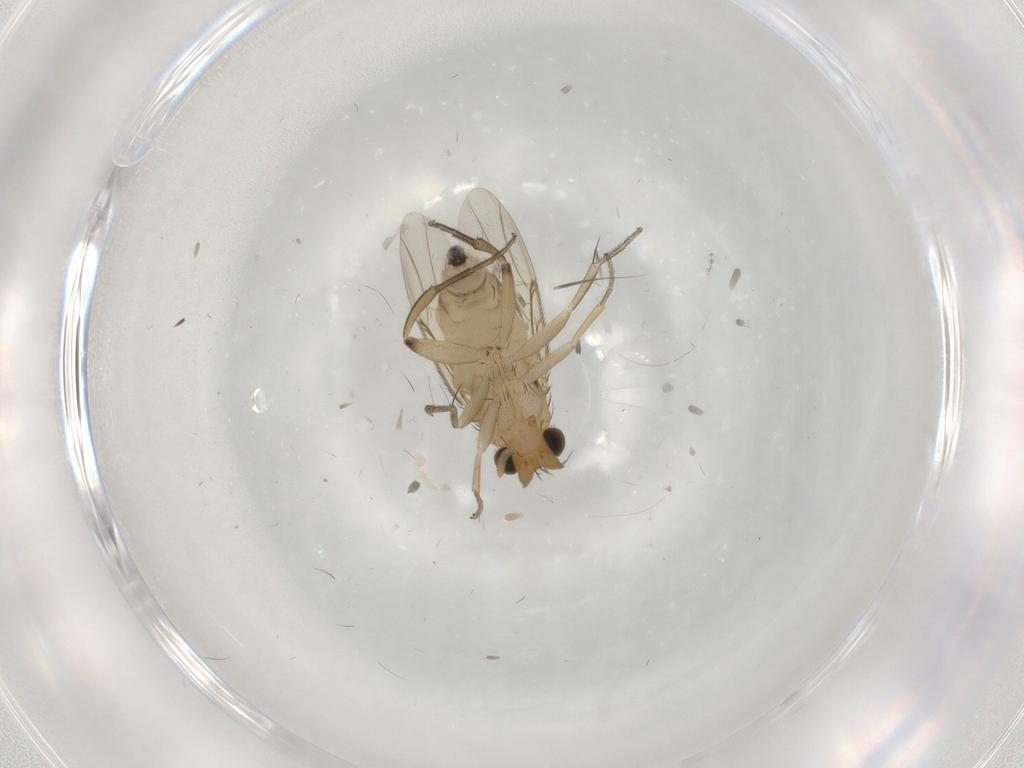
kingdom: Animalia
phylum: Arthropoda
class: Insecta
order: Diptera
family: Phoridae
